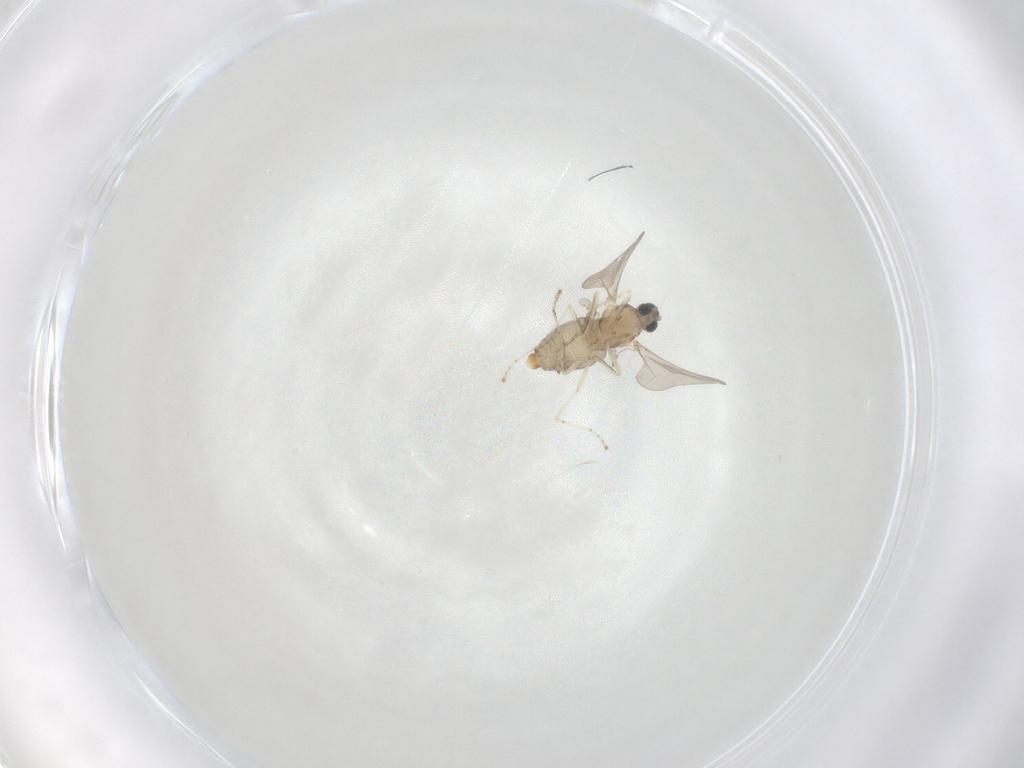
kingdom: Animalia
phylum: Arthropoda
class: Insecta
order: Diptera
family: Cecidomyiidae
